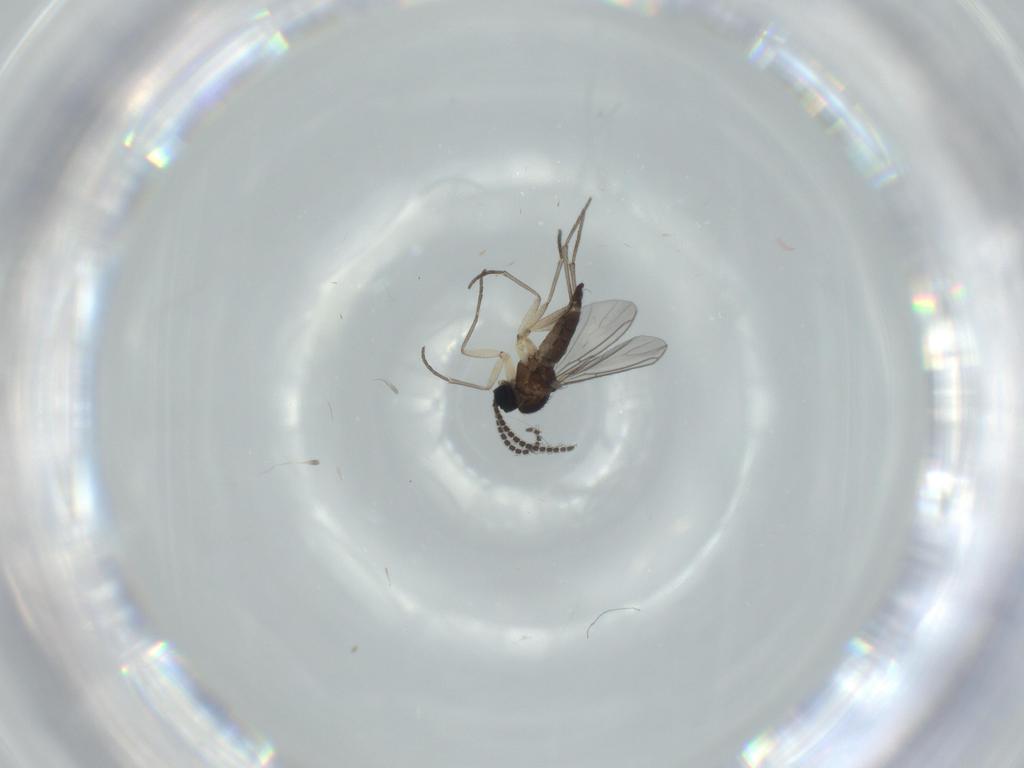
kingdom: Animalia
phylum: Arthropoda
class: Insecta
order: Diptera
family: Sciaridae
